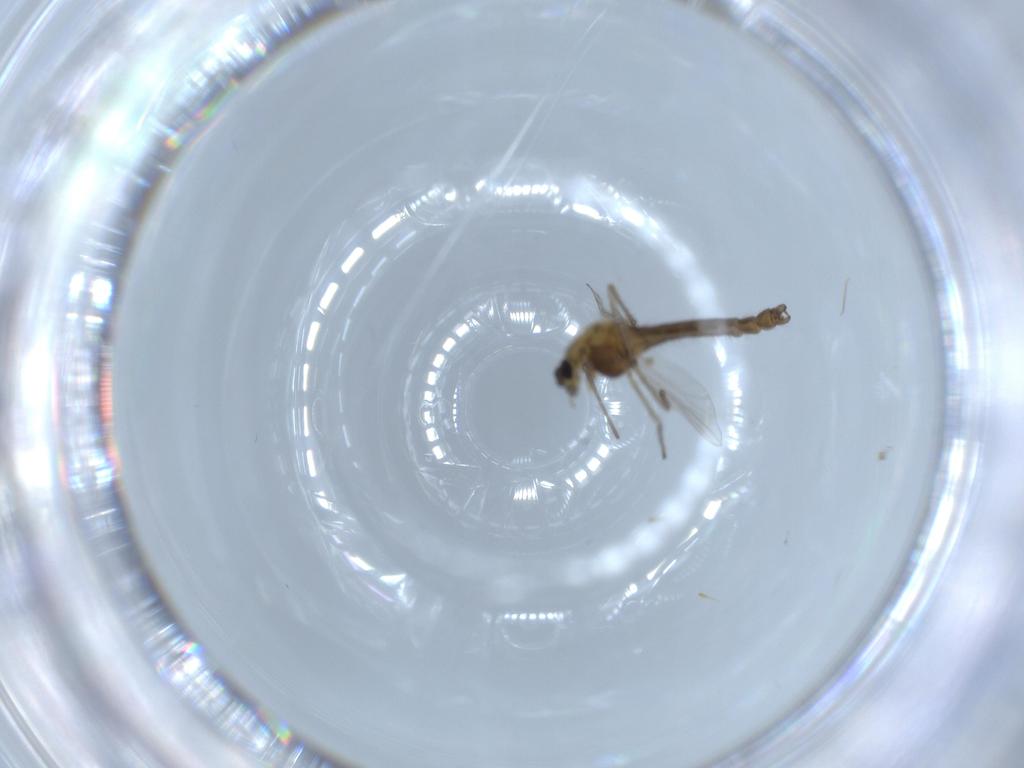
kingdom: Animalia
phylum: Arthropoda
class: Insecta
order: Diptera
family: Chironomidae
